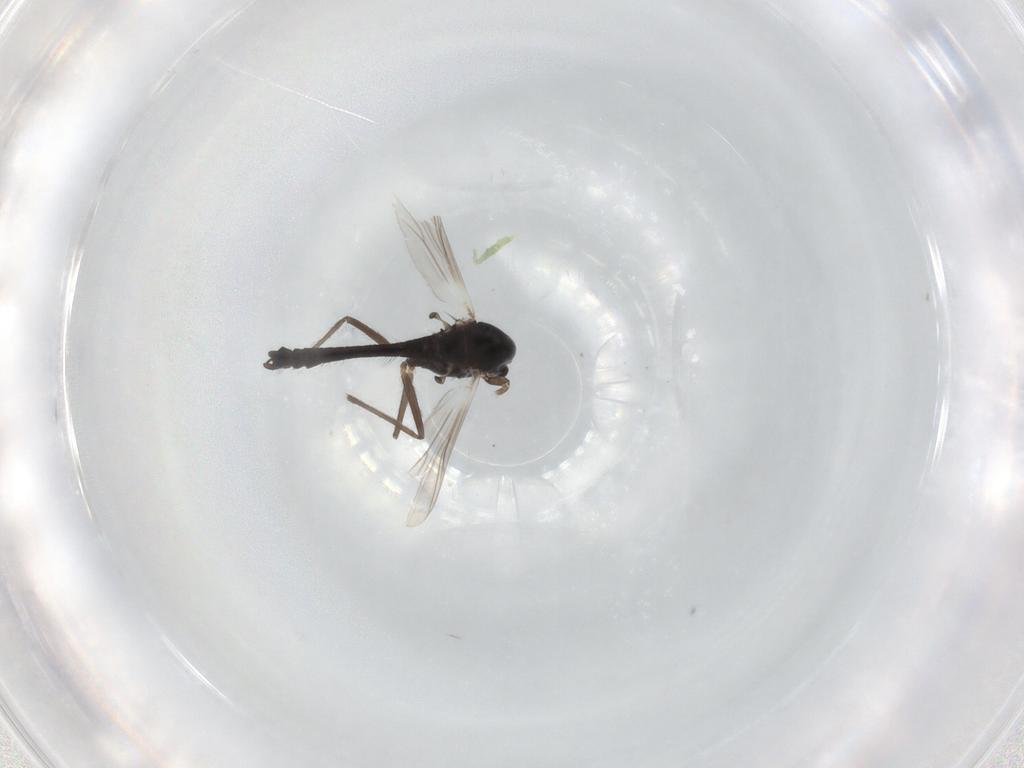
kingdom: Animalia
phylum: Arthropoda
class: Insecta
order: Diptera
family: Chironomidae
